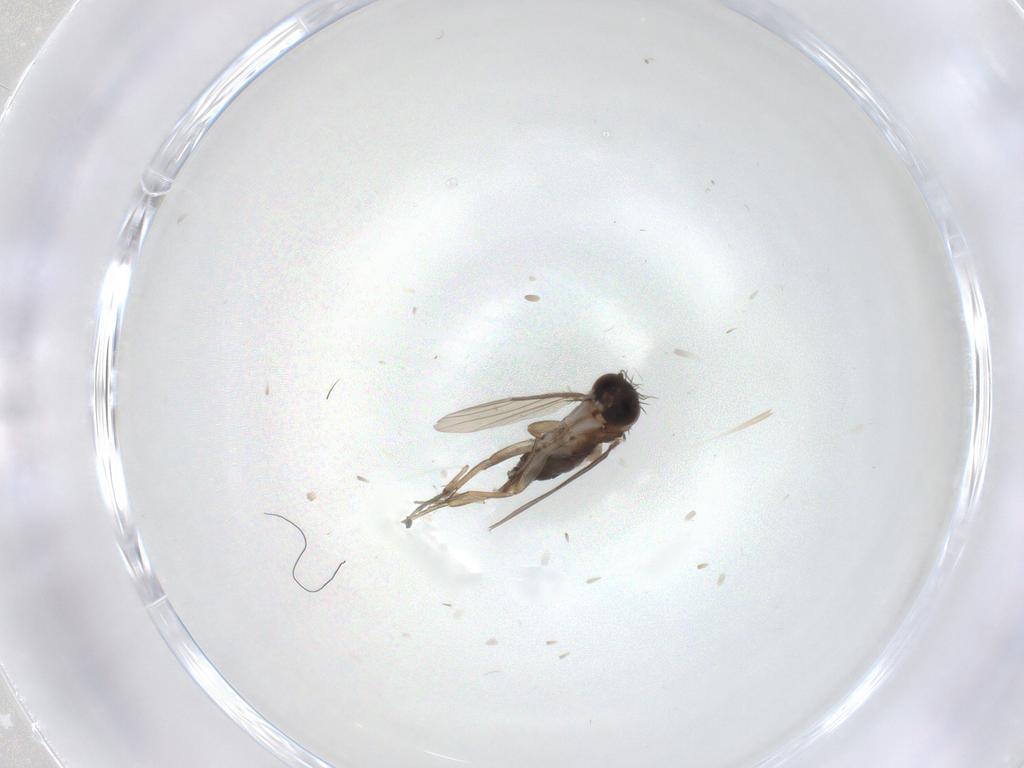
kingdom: Animalia
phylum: Arthropoda
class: Insecta
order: Diptera
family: Phoridae
